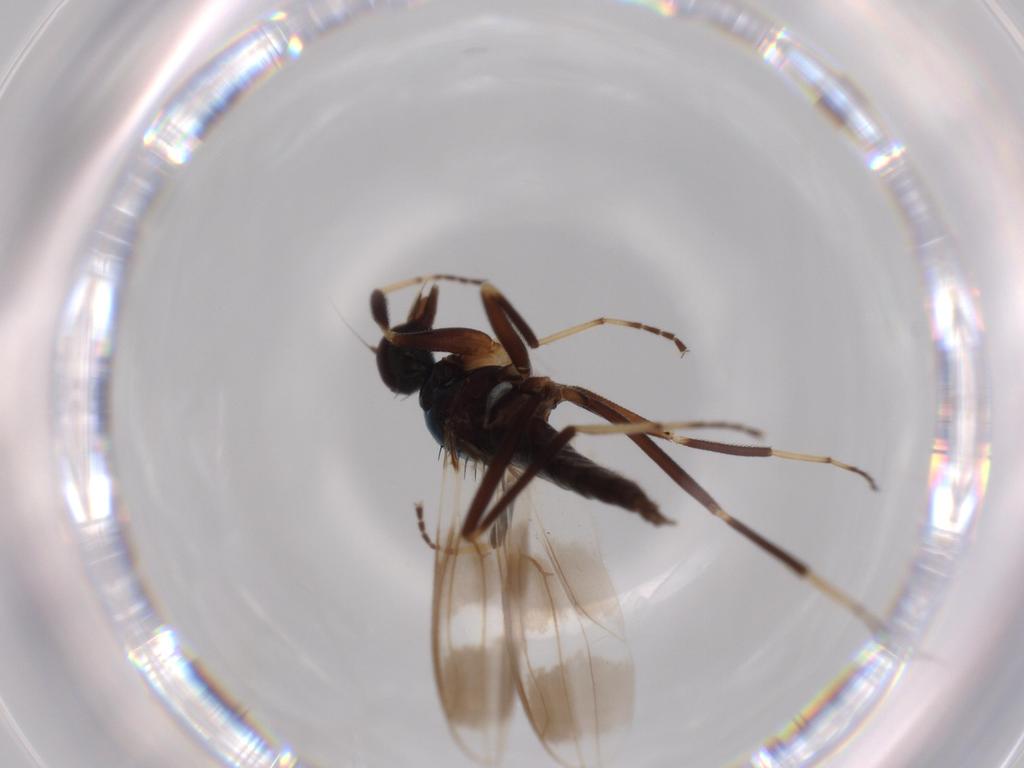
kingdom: Animalia
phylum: Arthropoda
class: Insecta
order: Diptera
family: Hybotidae
